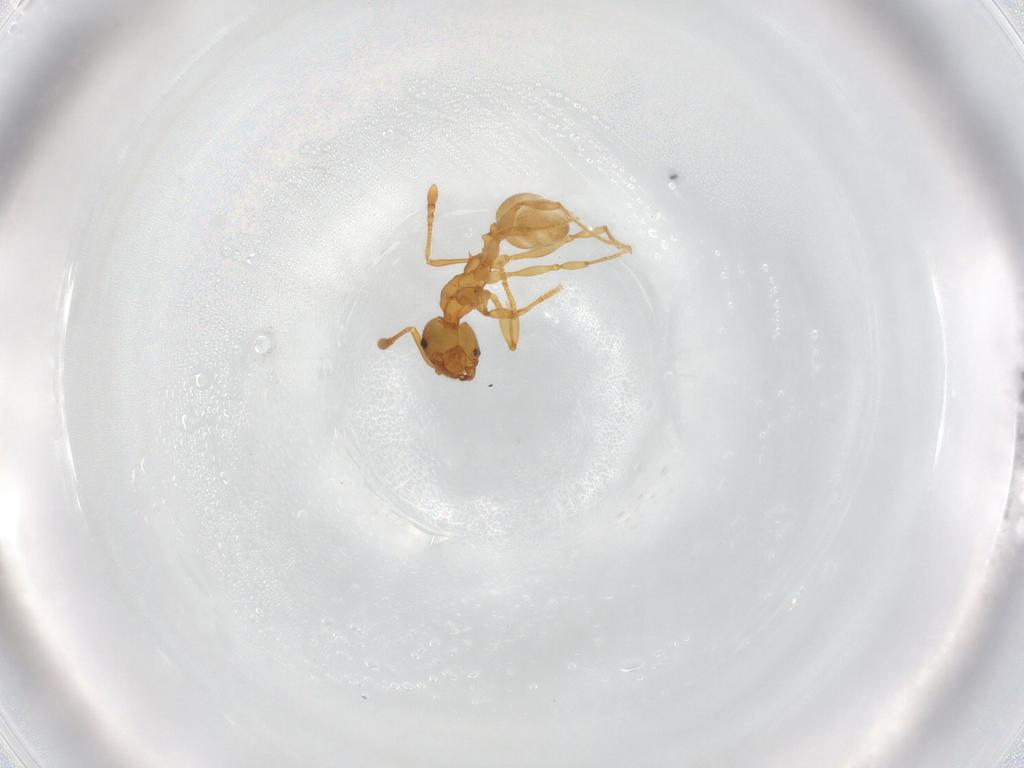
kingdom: Animalia
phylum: Arthropoda
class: Insecta
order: Hymenoptera
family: Formicidae
